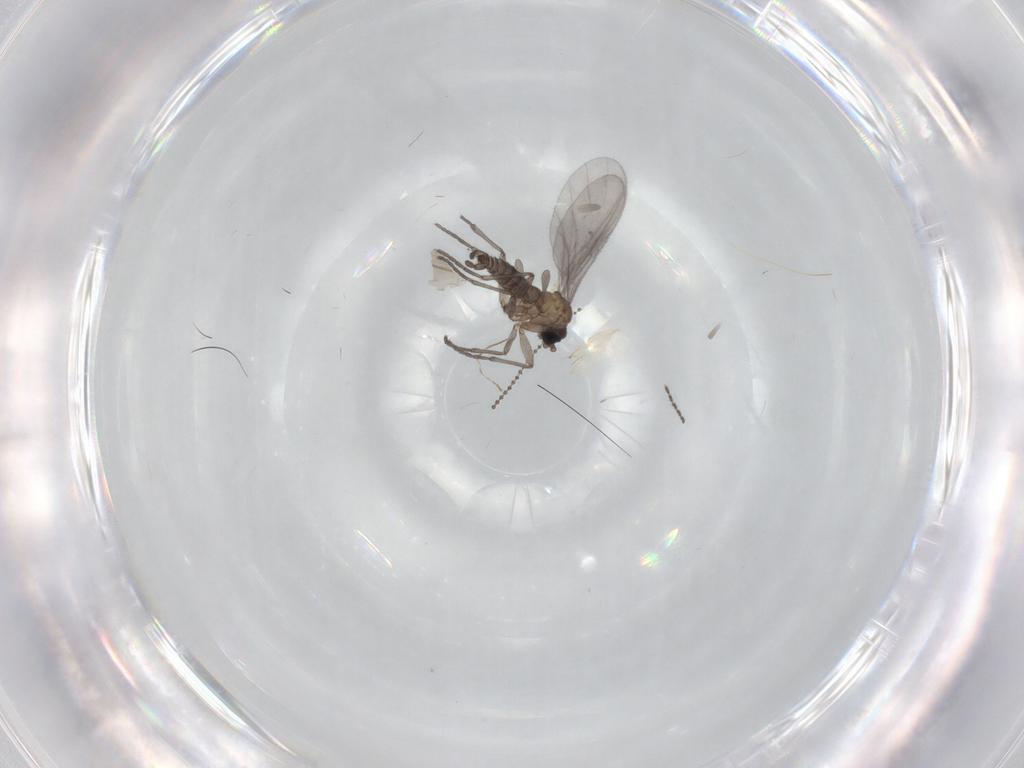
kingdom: Animalia
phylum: Arthropoda
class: Insecta
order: Diptera
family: Sciaridae
